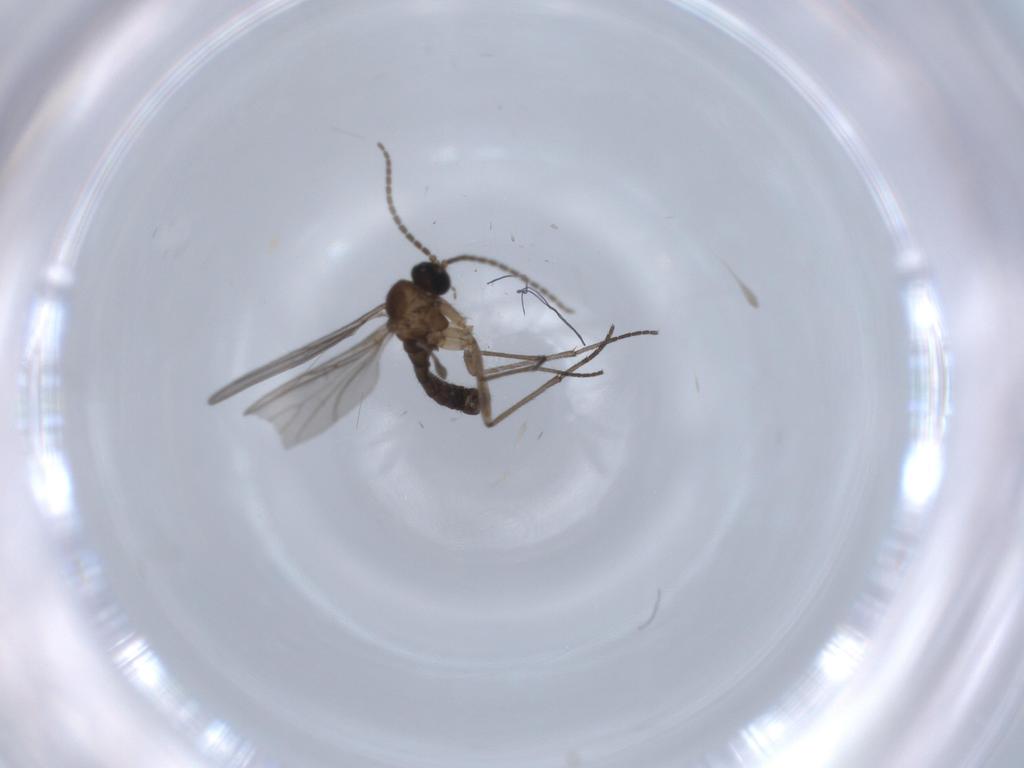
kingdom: Animalia
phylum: Arthropoda
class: Insecta
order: Diptera
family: Sciaridae
